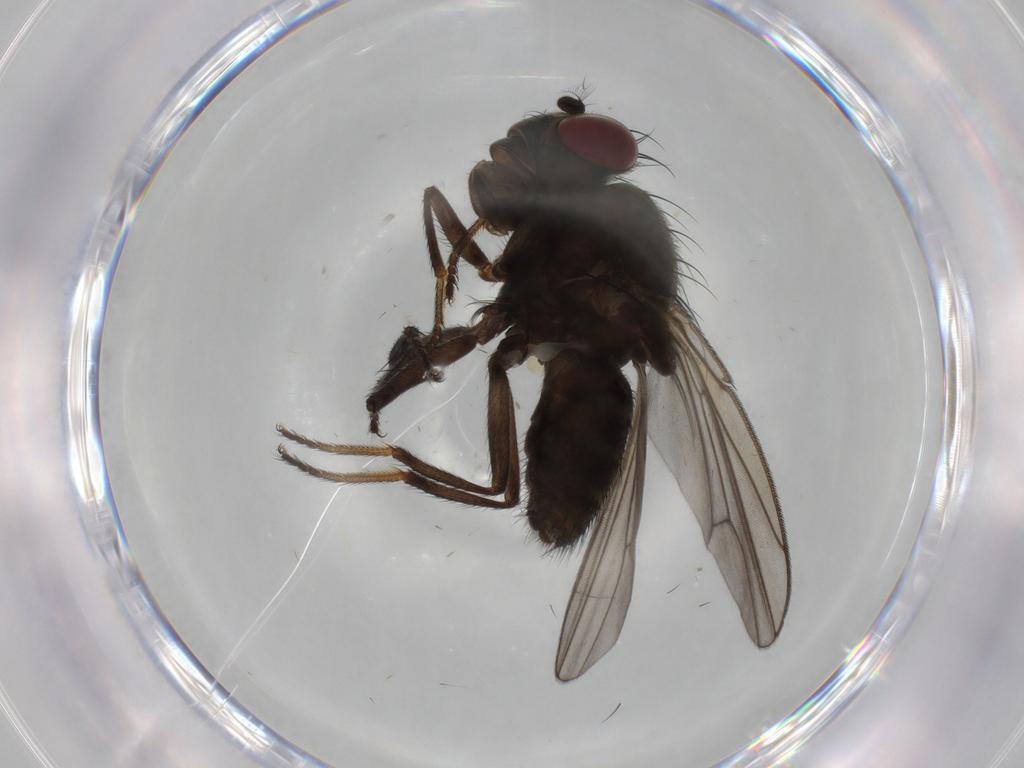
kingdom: Animalia
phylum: Arthropoda
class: Insecta
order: Diptera
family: Ephydridae
